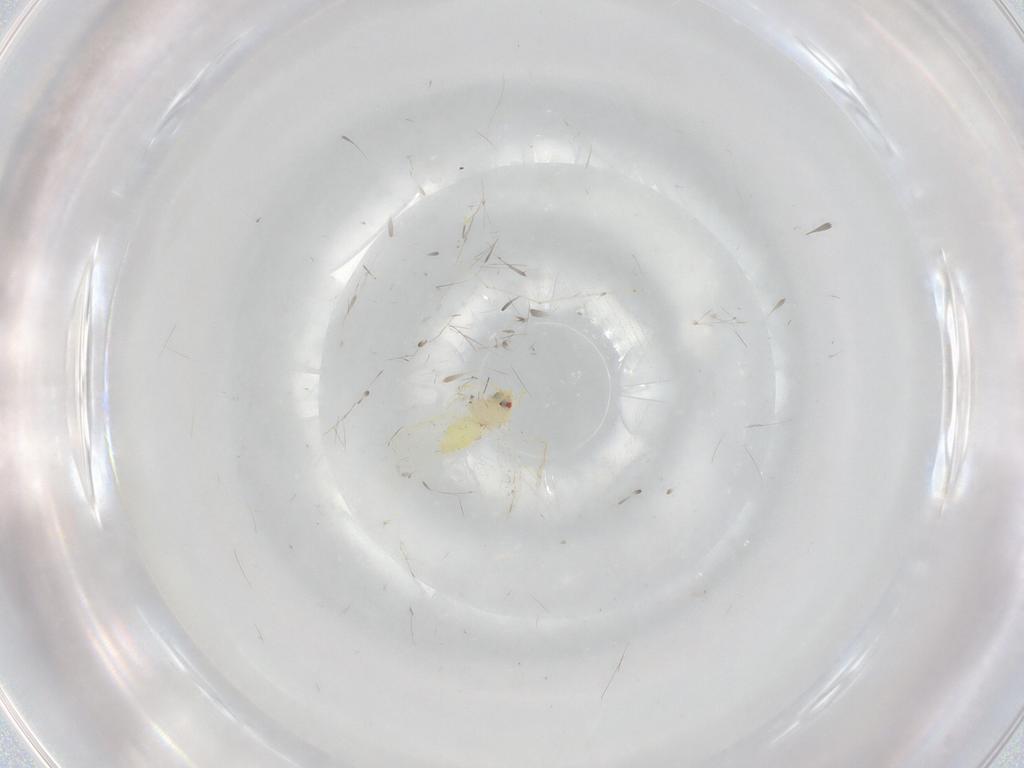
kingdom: Animalia
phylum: Arthropoda
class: Insecta
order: Hemiptera
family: Aleyrodidae
